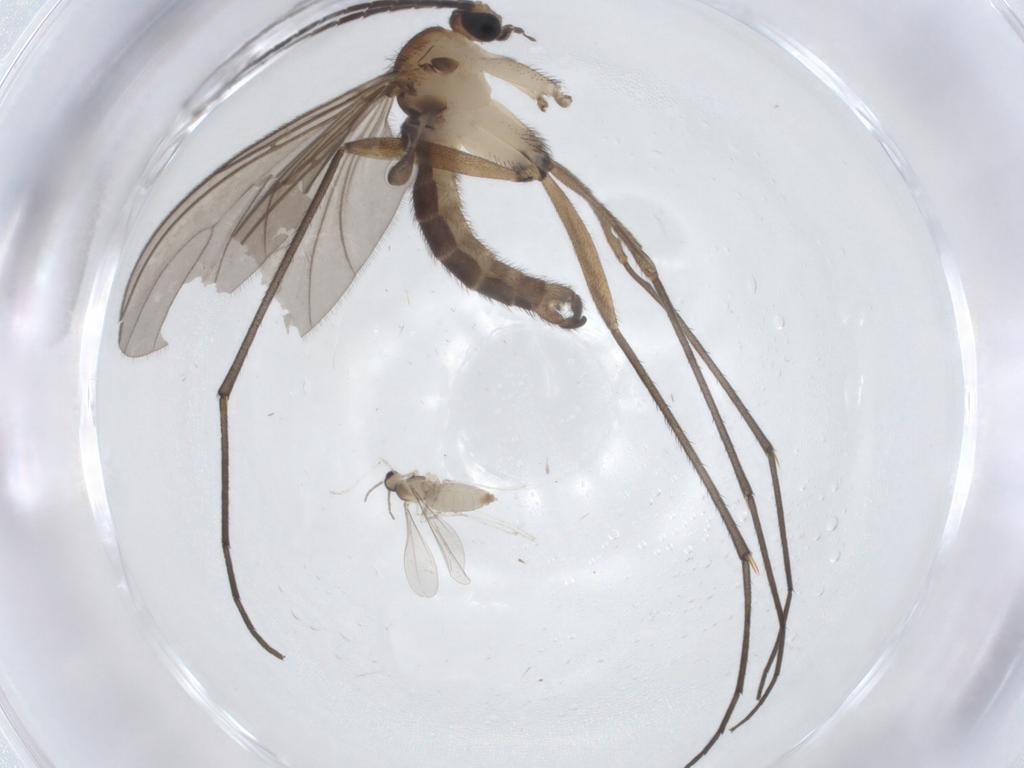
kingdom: Animalia
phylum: Arthropoda
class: Insecta
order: Diptera
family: Sciaridae
